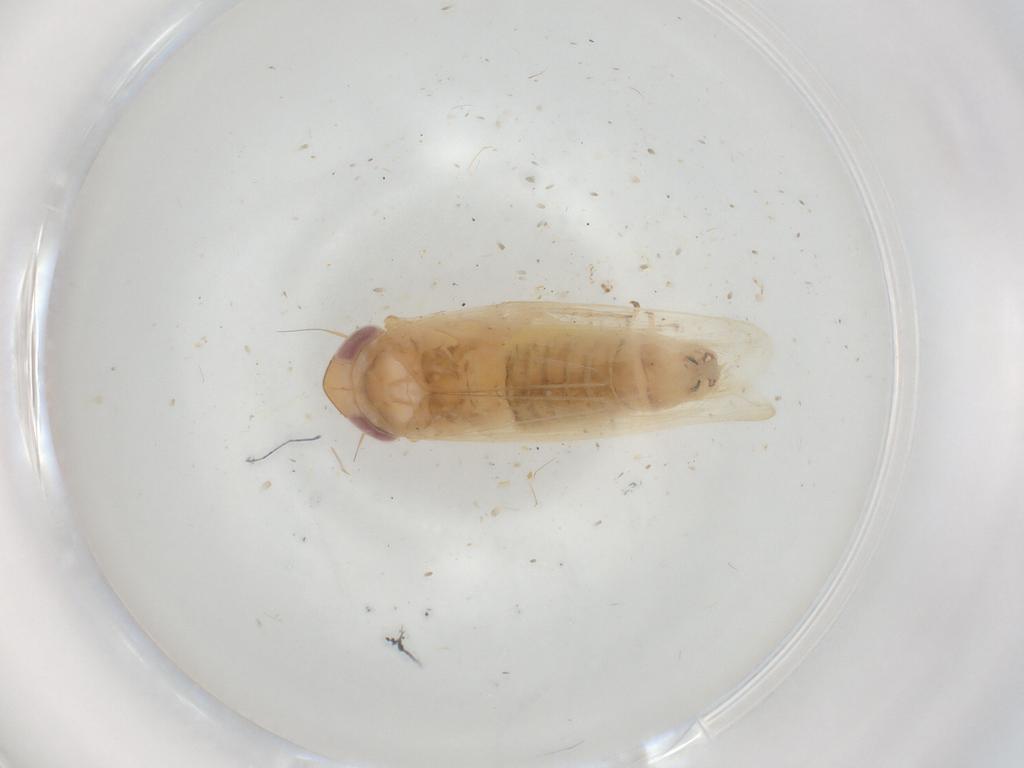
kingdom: Animalia
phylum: Arthropoda
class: Insecta
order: Hemiptera
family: Cicadellidae
